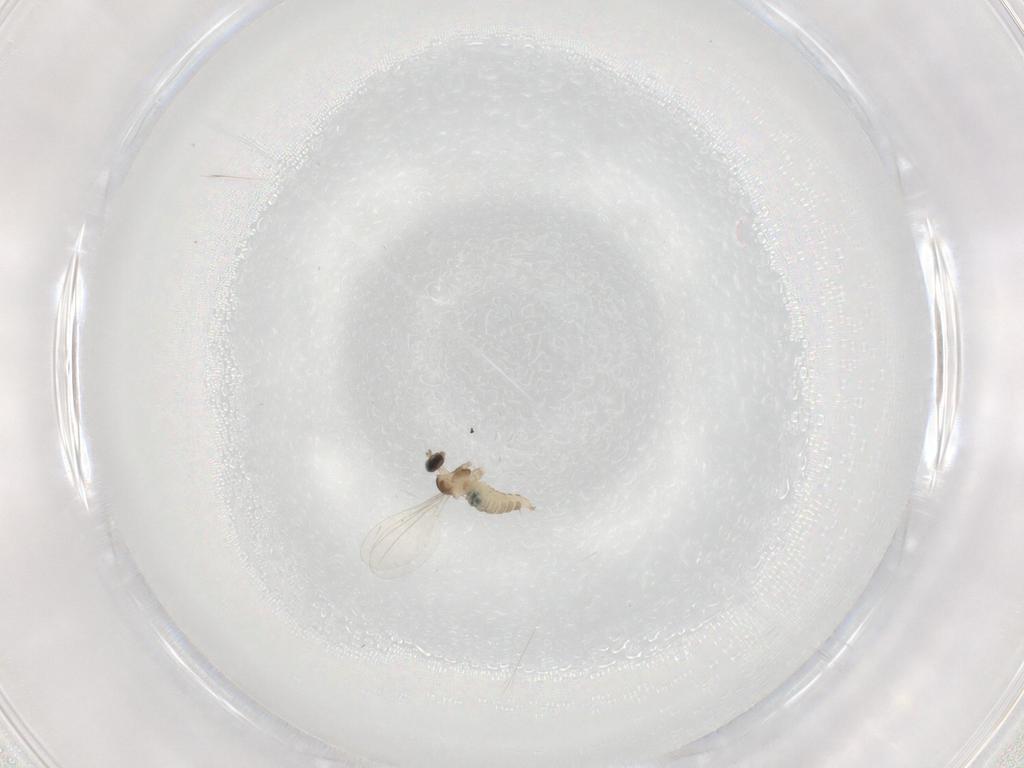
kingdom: Animalia
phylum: Arthropoda
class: Insecta
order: Diptera
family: Cecidomyiidae
